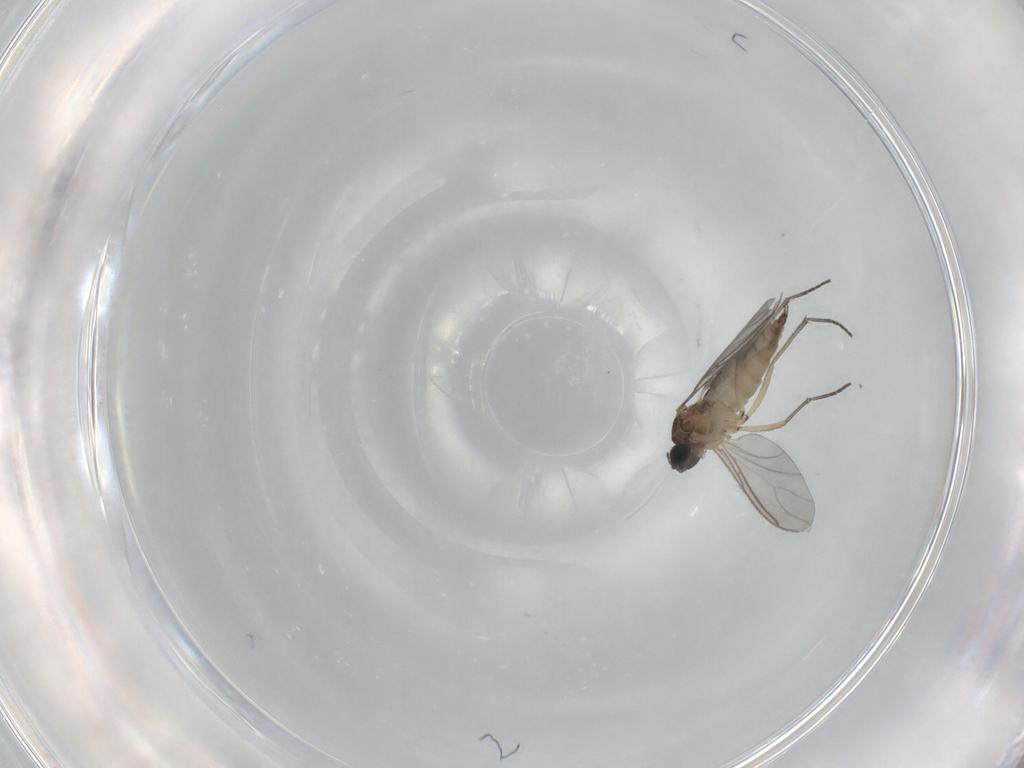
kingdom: Animalia
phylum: Arthropoda
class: Insecta
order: Diptera
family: Sciaridae
